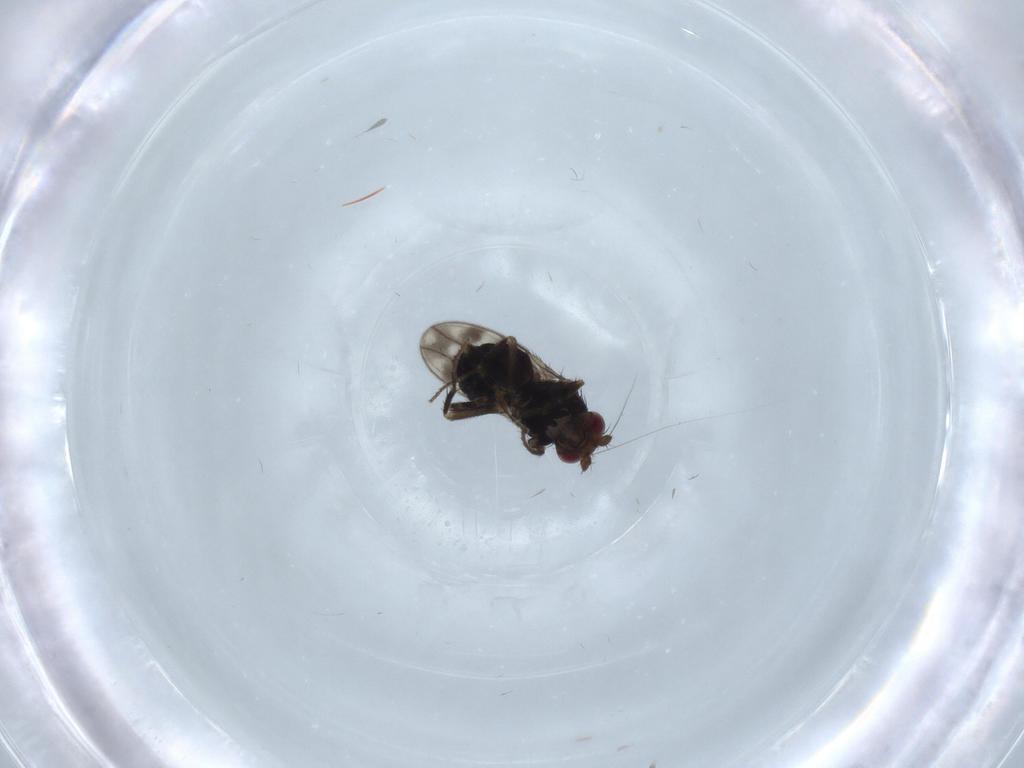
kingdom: Animalia
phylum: Arthropoda
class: Insecta
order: Diptera
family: Sphaeroceridae
